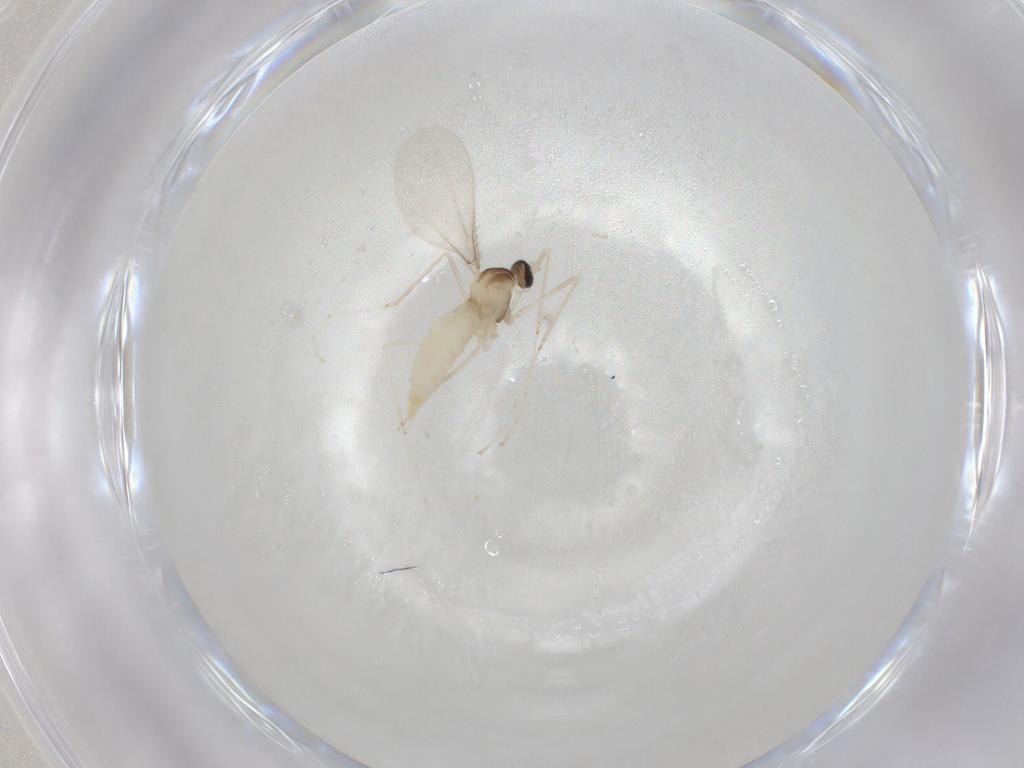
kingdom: Animalia
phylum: Arthropoda
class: Insecta
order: Diptera
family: Cecidomyiidae
